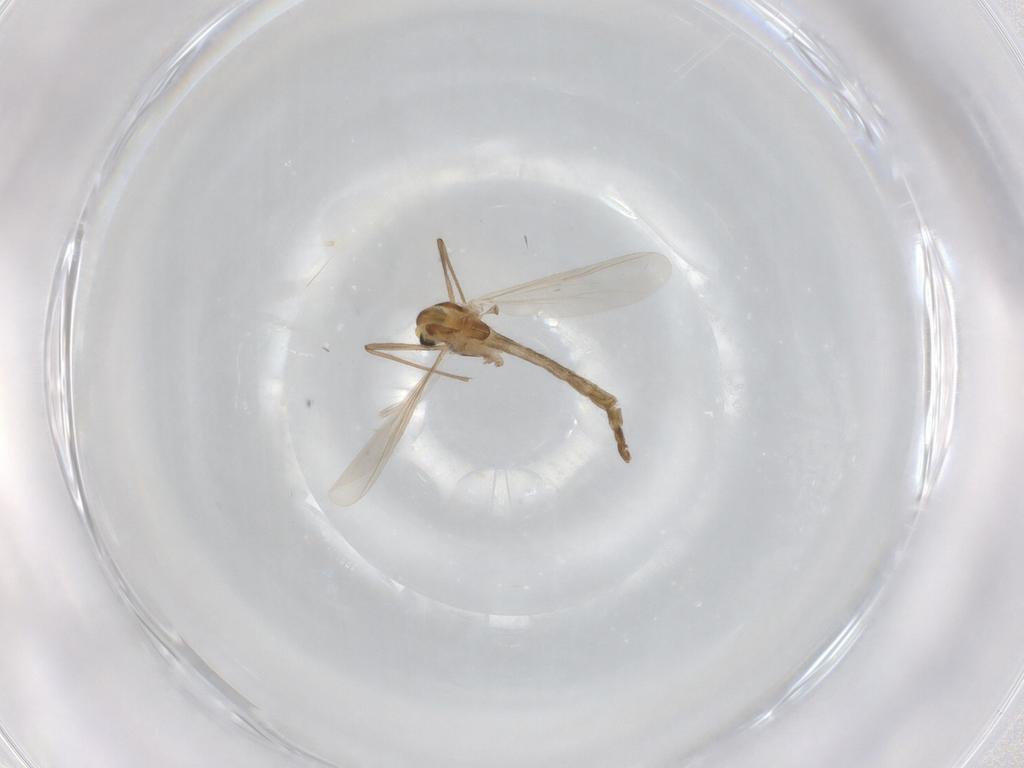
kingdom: Animalia
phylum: Arthropoda
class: Insecta
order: Diptera
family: Chironomidae
